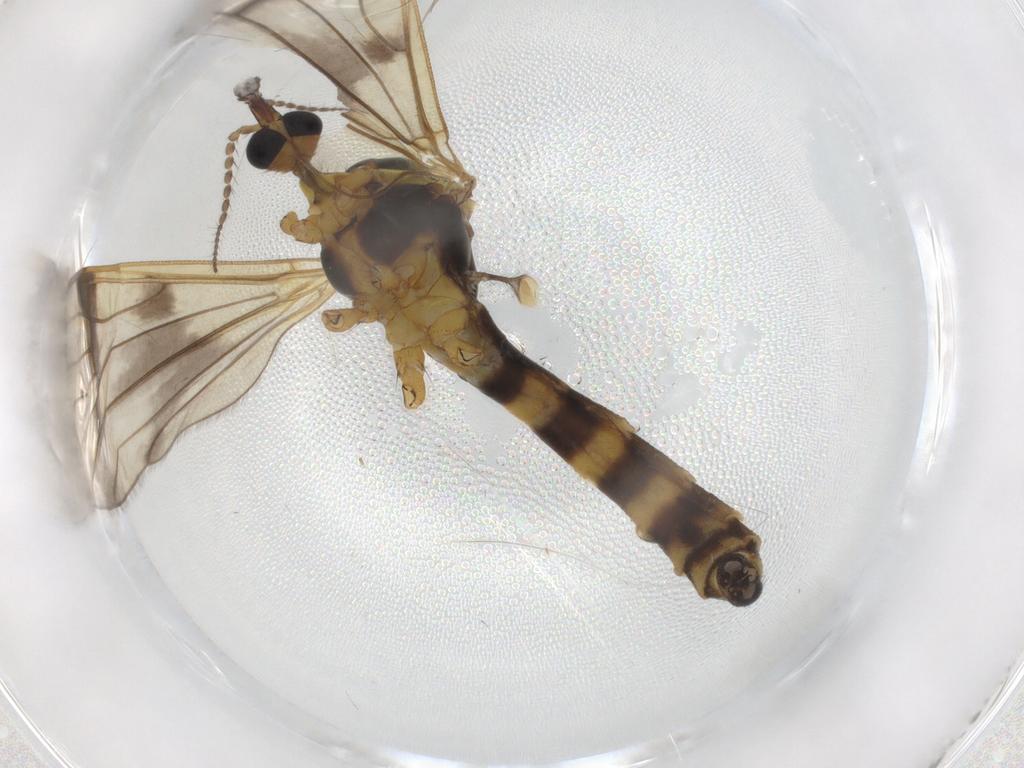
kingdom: Animalia
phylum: Arthropoda
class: Insecta
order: Diptera
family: Limoniidae
